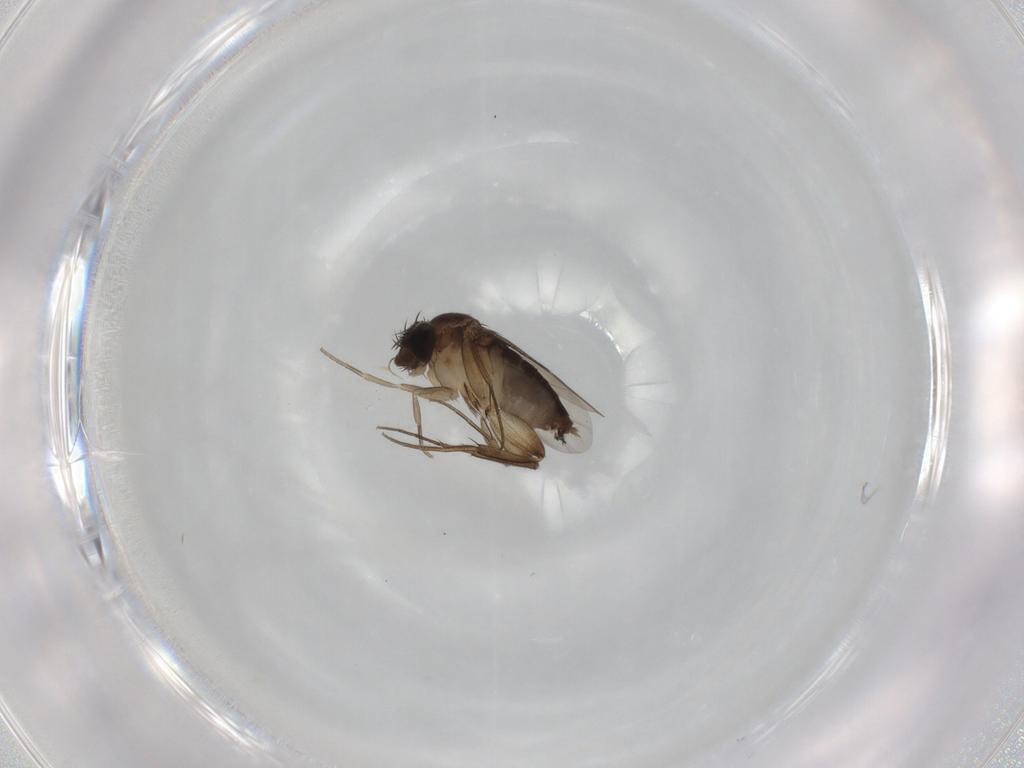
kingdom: Animalia
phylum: Arthropoda
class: Insecta
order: Diptera
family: Phoridae
